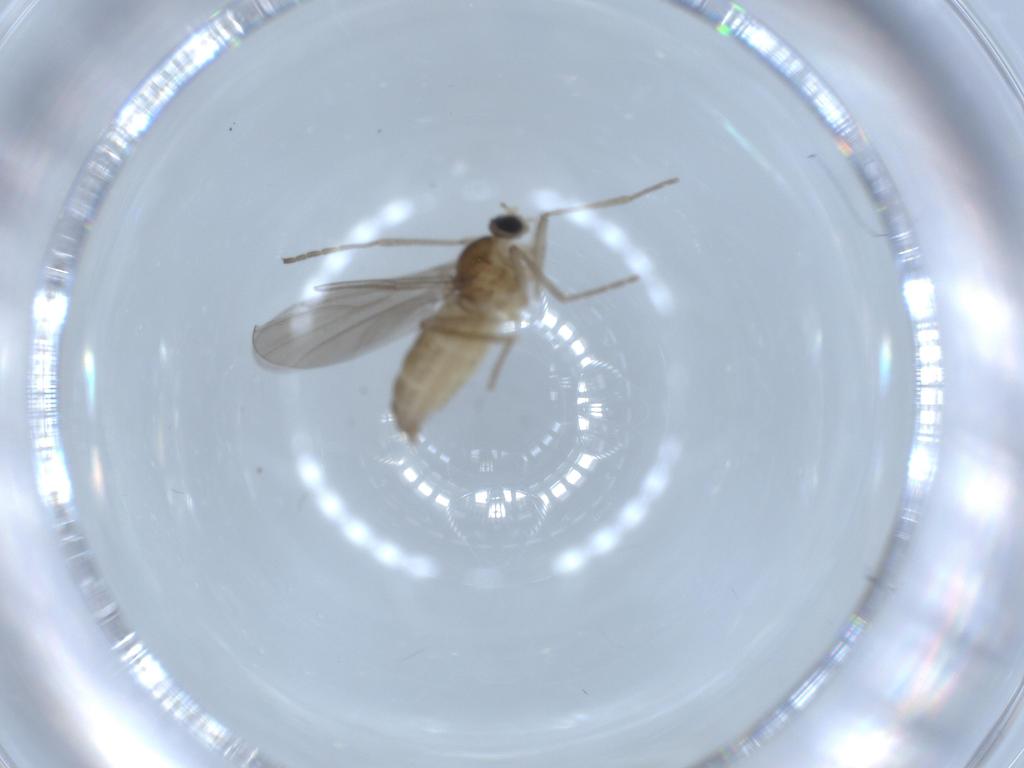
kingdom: Animalia
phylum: Arthropoda
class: Insecta
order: Diptera
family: Cecidomyiidae
